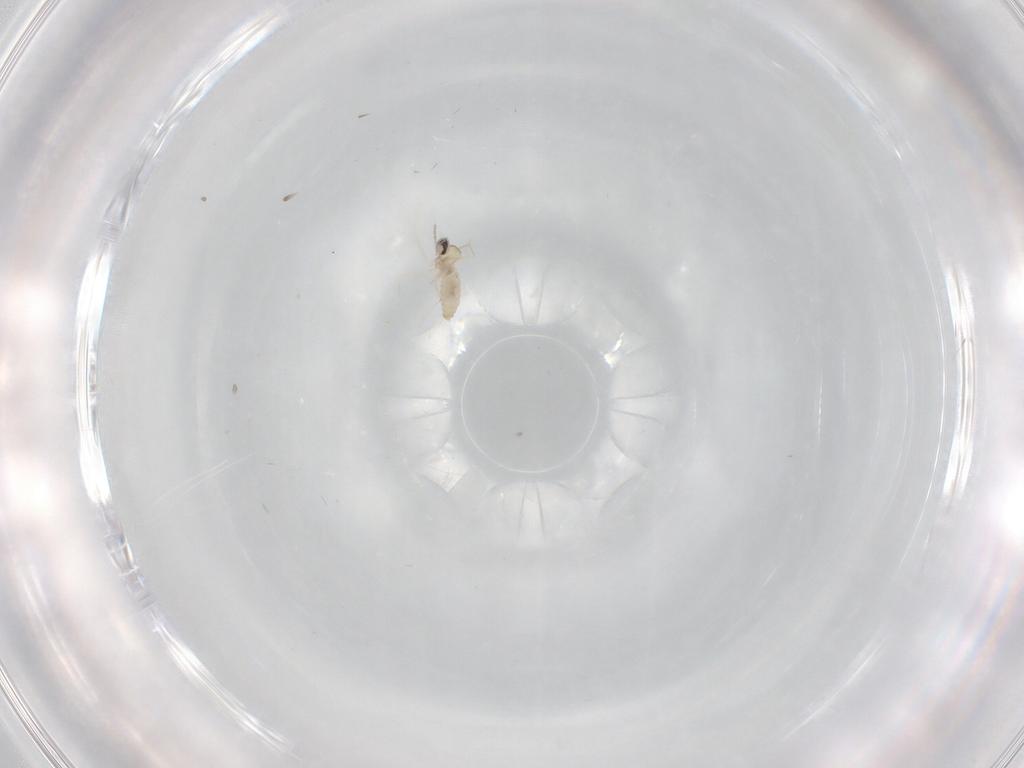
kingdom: Animalia
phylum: Arthropoda
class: Insecta
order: Diptera
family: Cecidomyiidae
